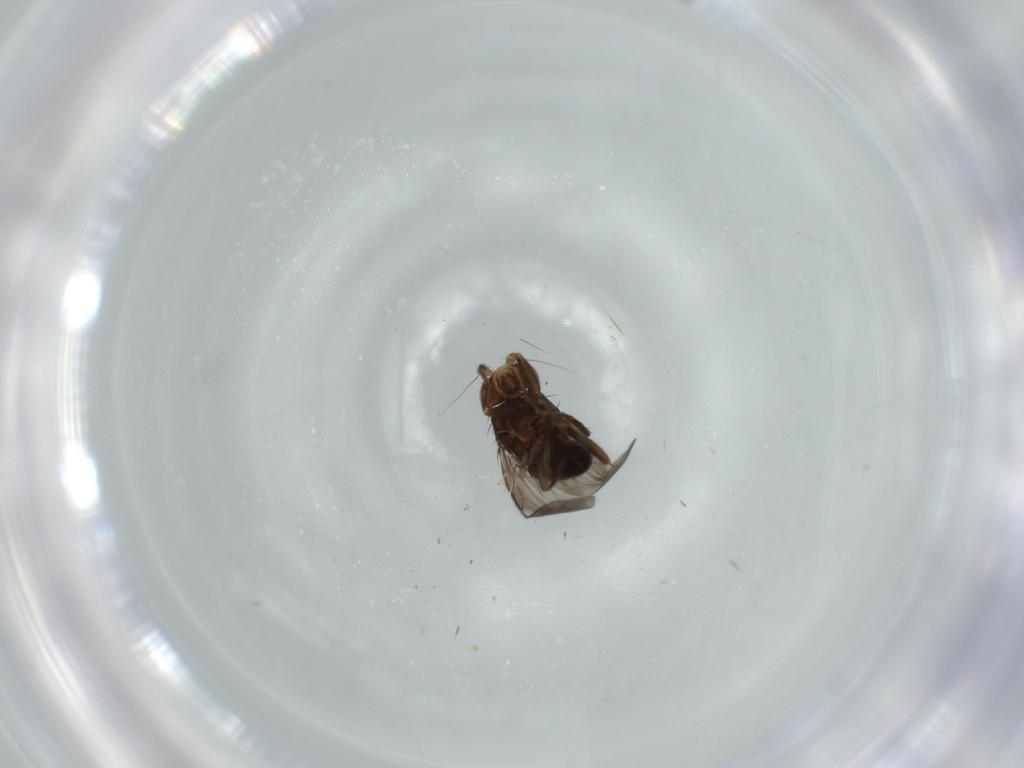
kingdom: Animalia
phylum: Arthropoda
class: Insecta
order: Diptera
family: Sphaeroceridae
